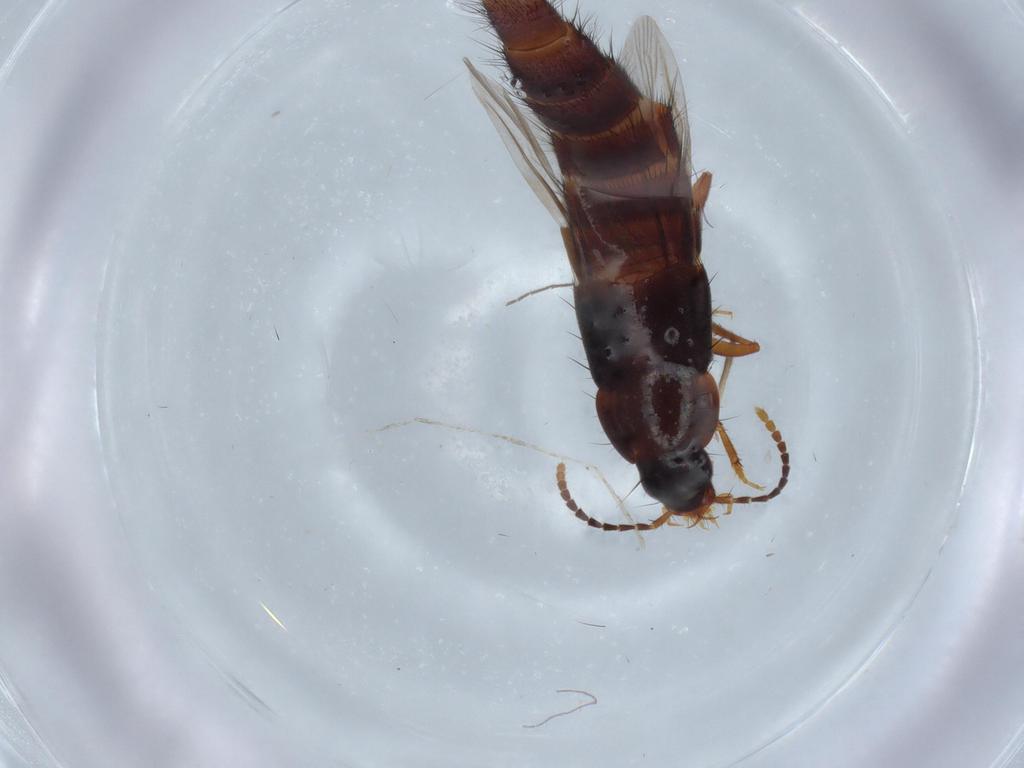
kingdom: Animalia
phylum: Arthropoda
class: Insecta
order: Coleoptera
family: Staphylinidae
